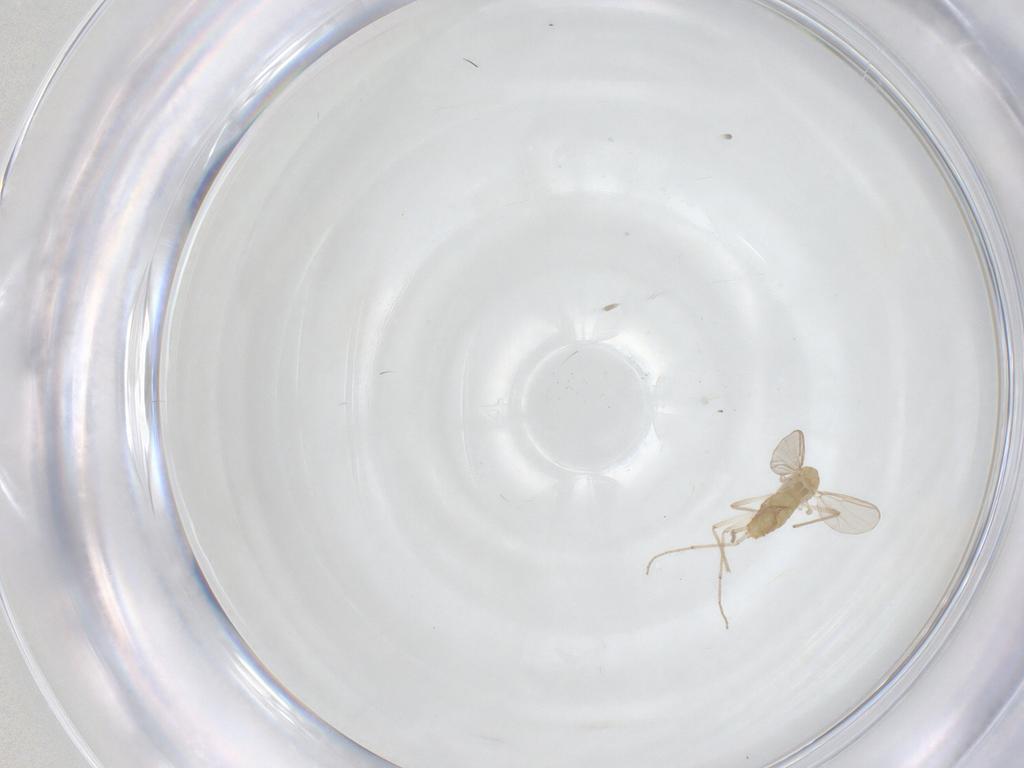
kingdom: Animalia
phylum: Arthropoda
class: Insecta
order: Diptera
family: Chironomidae
